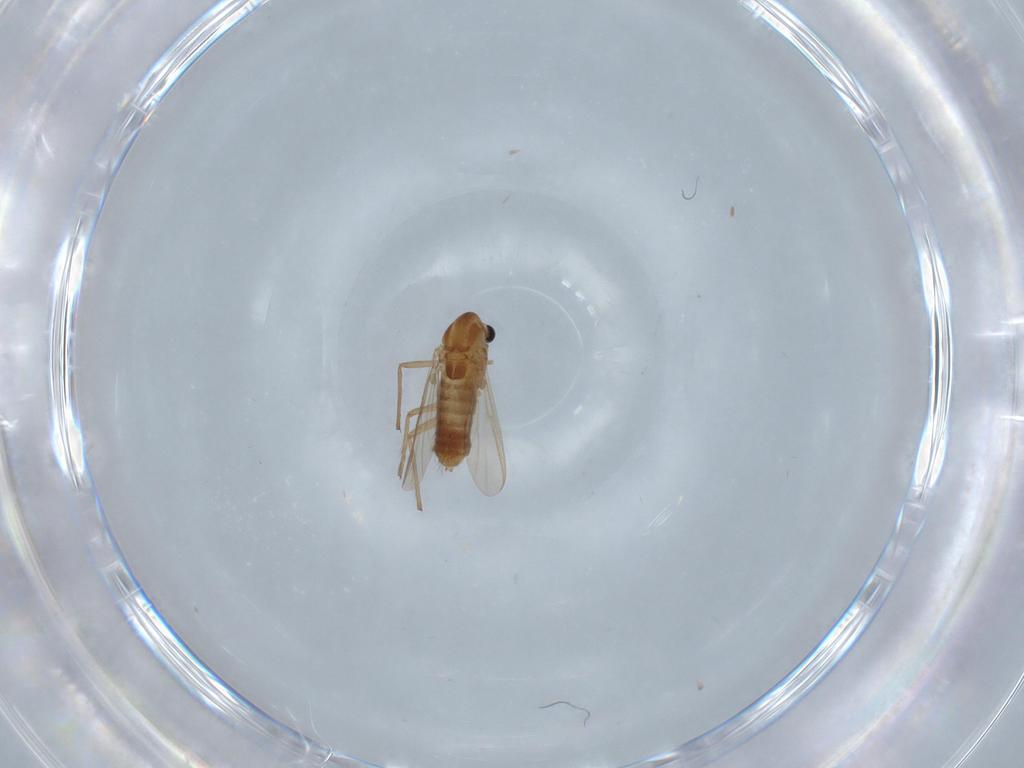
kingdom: Animalia
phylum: Arthropoda
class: Insecta
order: Diptera
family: Chironomidae
